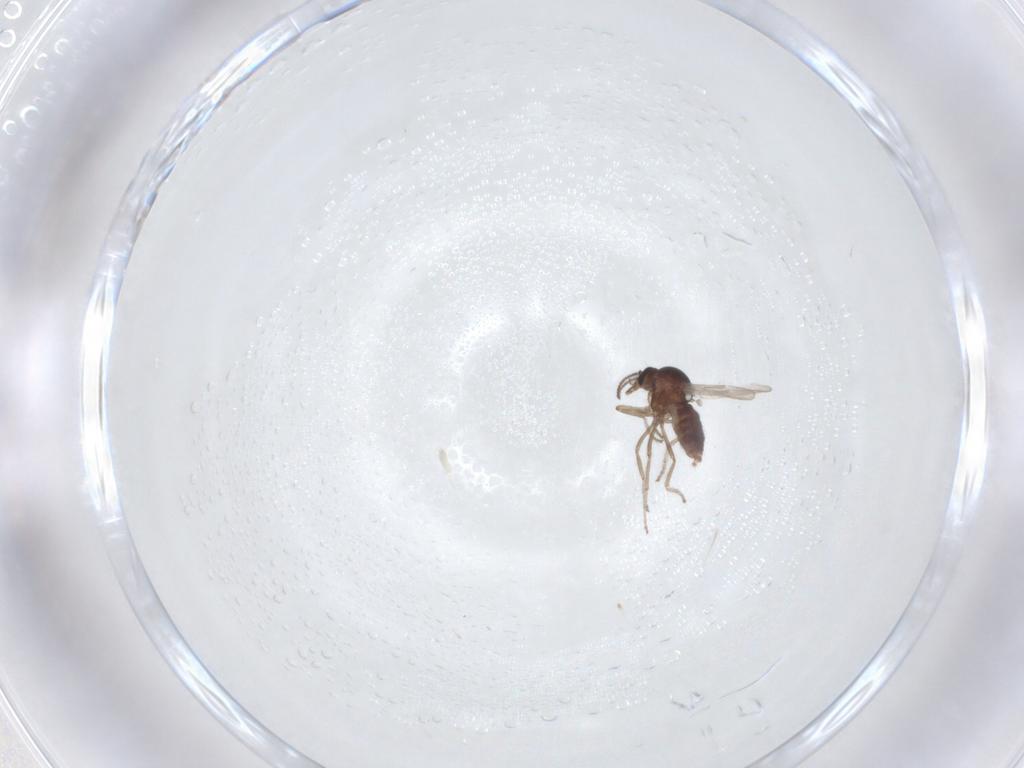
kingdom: Animalia
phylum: Arthropoda
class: Insecta
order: Diptera
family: Ceratopogonidae
